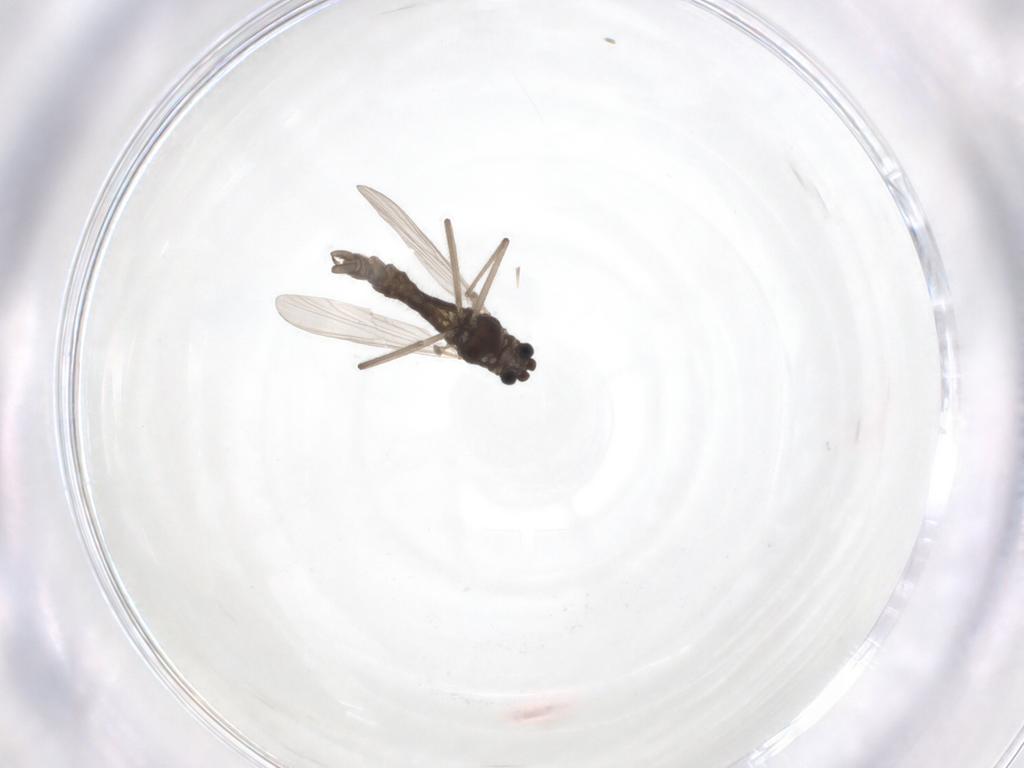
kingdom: Animalia
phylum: Arthropoda
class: Insecta
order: Diptera
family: Chironomidae
